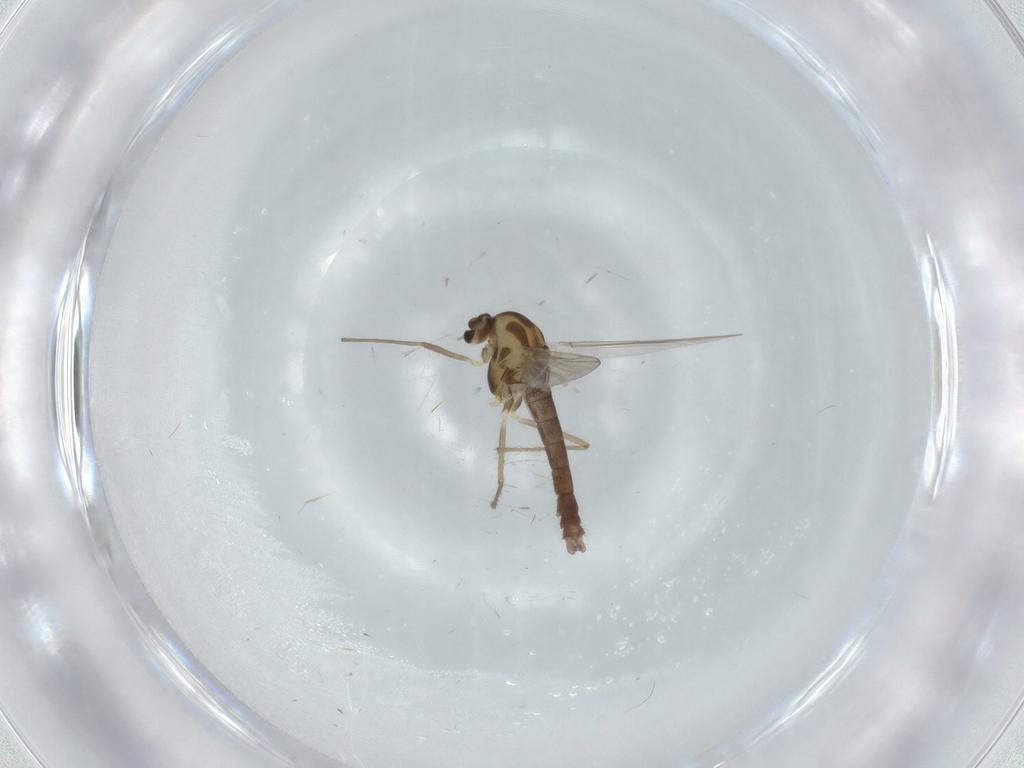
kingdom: Animalia
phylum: Arthropoda
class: Insecta
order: Diptera
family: Chironomidae
